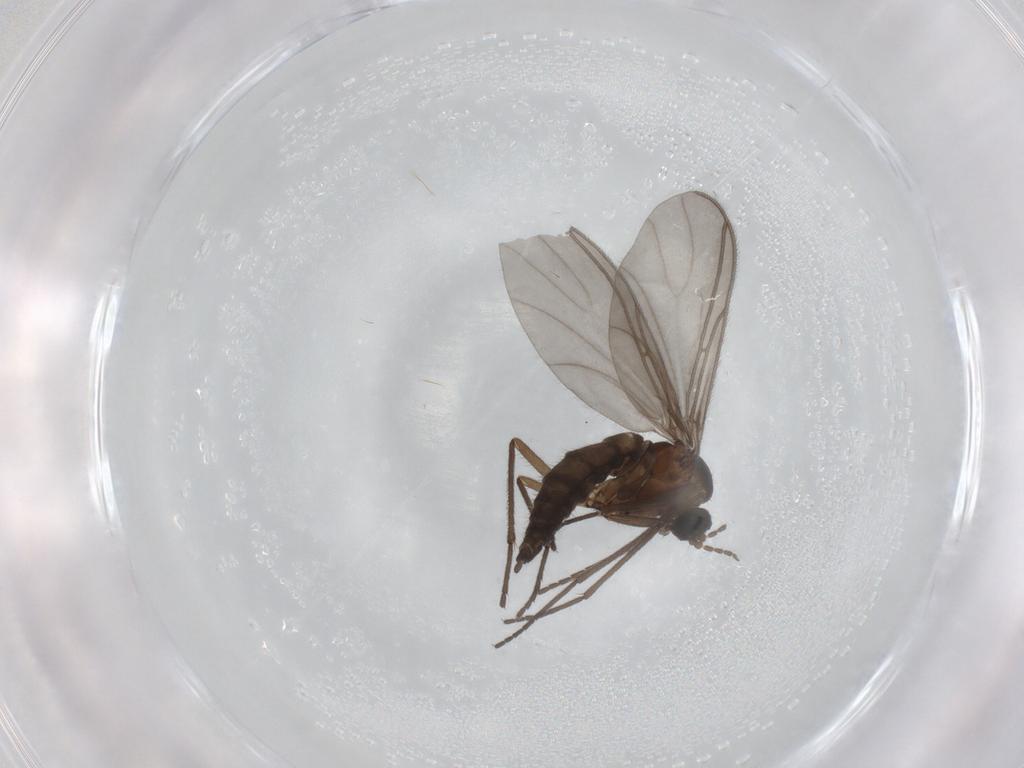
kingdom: Animalia
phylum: Arthropoda
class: Insecta
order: Diptera
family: Sciaridae
